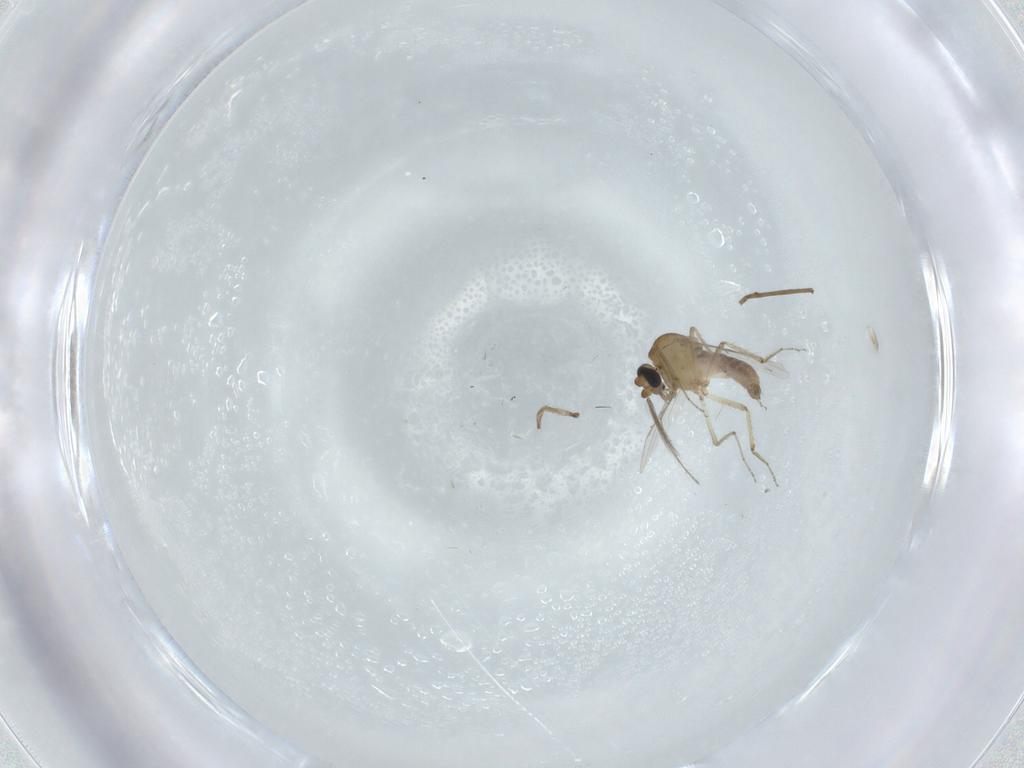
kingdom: Animalia
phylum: Arthropoda
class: Insecta
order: Diptera
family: Ceratopogonidae
